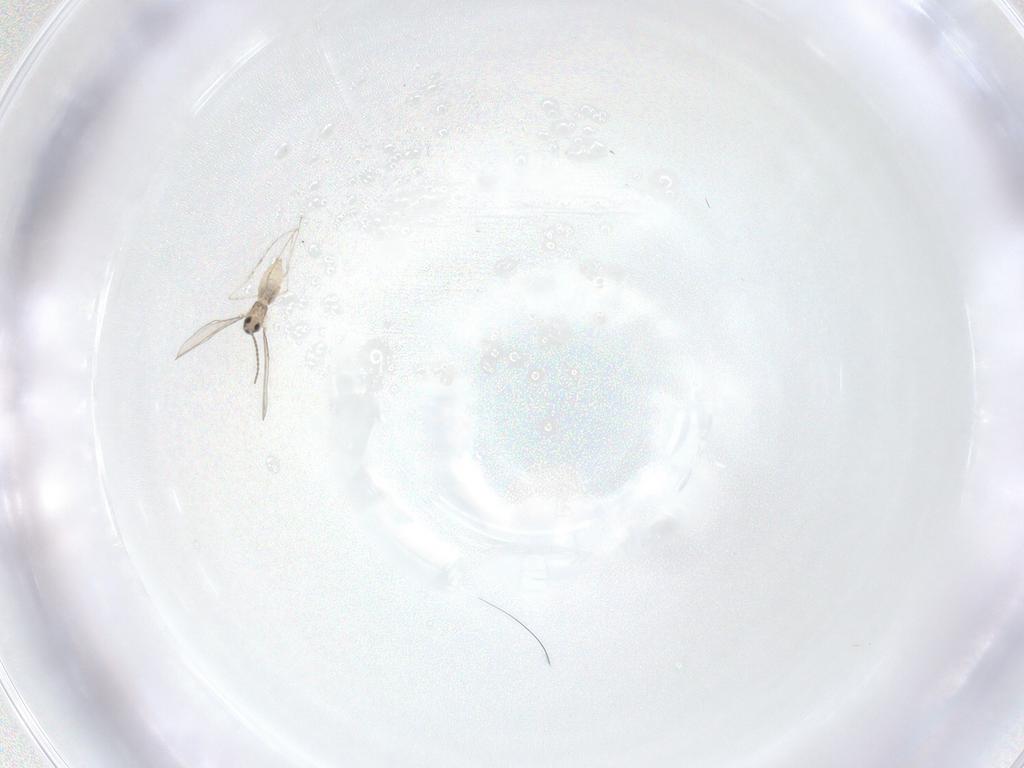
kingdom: Animalia
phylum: Arthropoda
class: Insecta
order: Diptera
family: Cecidomyiidae
